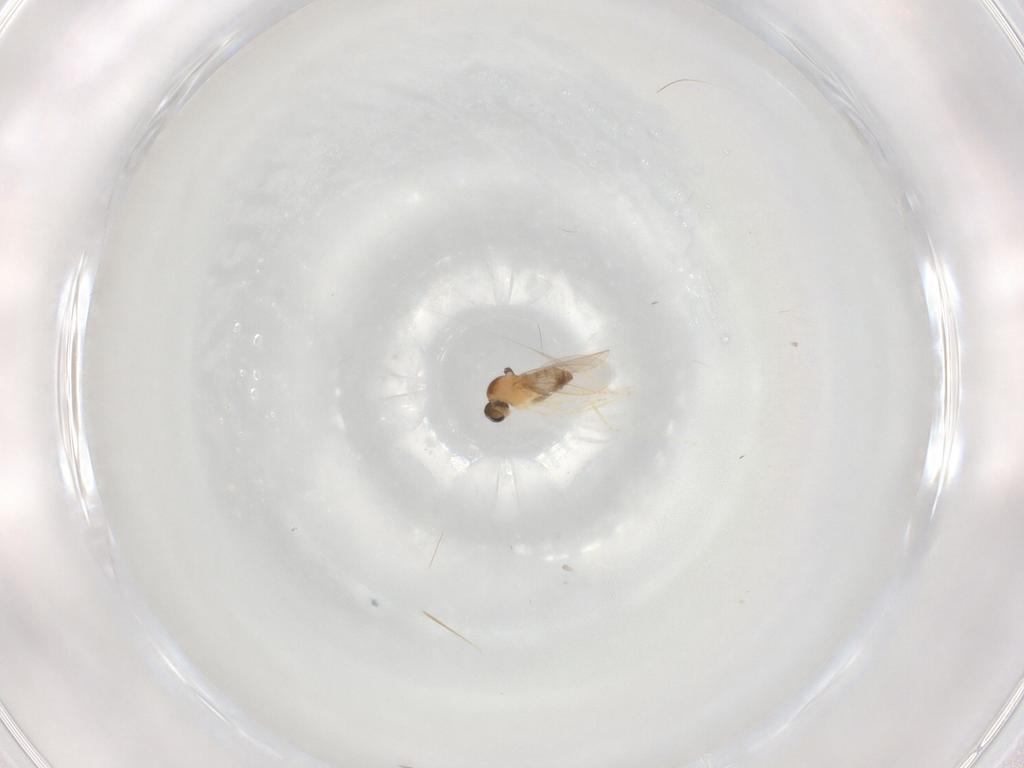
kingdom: Animalia
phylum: Arthropoda
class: Insecta
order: Diptera
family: Cecidomyiidae
